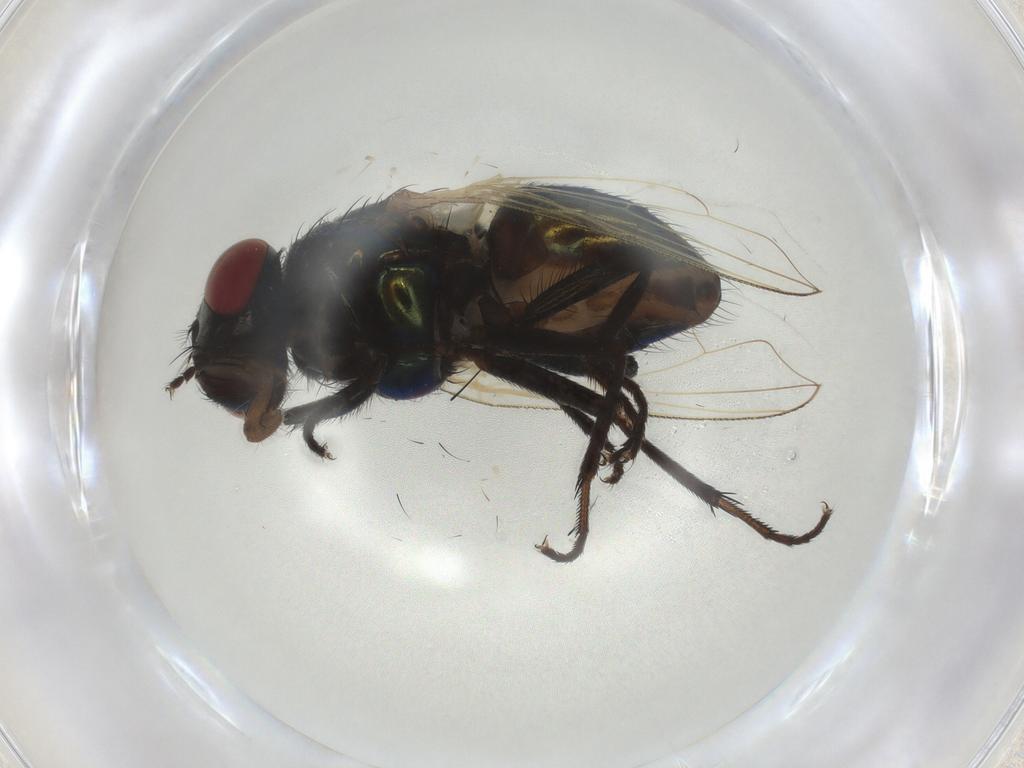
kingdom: Animalia
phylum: Arthropoda
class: Insecta
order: Diptera
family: Muscidae
